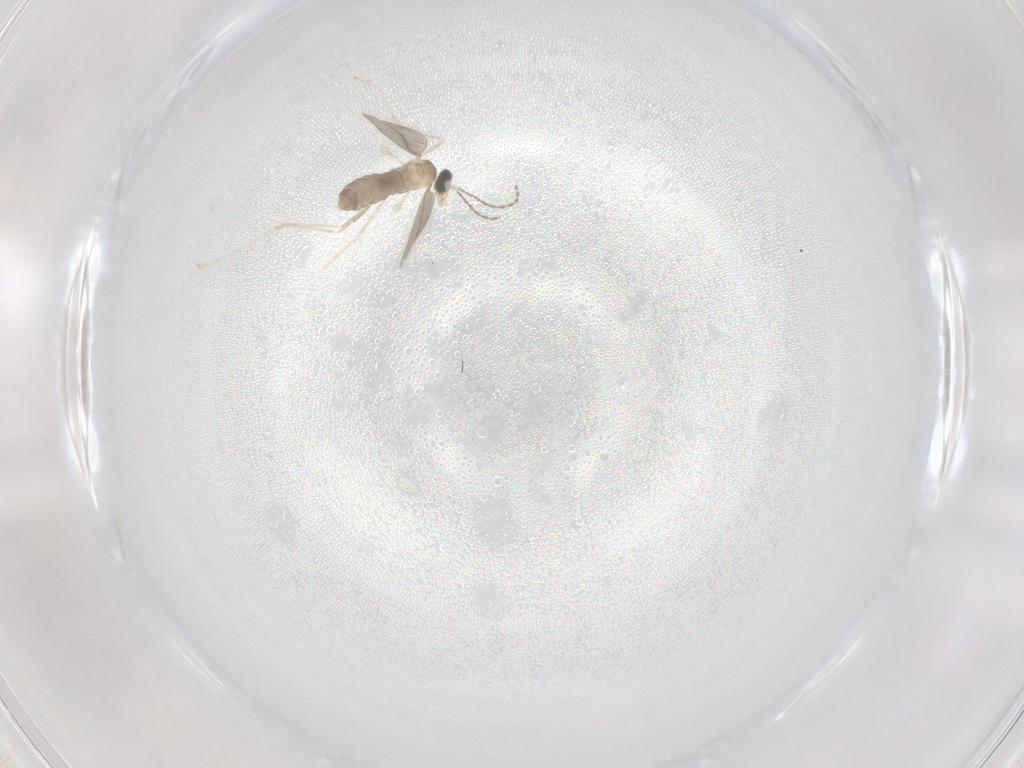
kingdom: Animalia
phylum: Arthropoda
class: Insecta
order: Diptera
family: Cecidomyiidae
